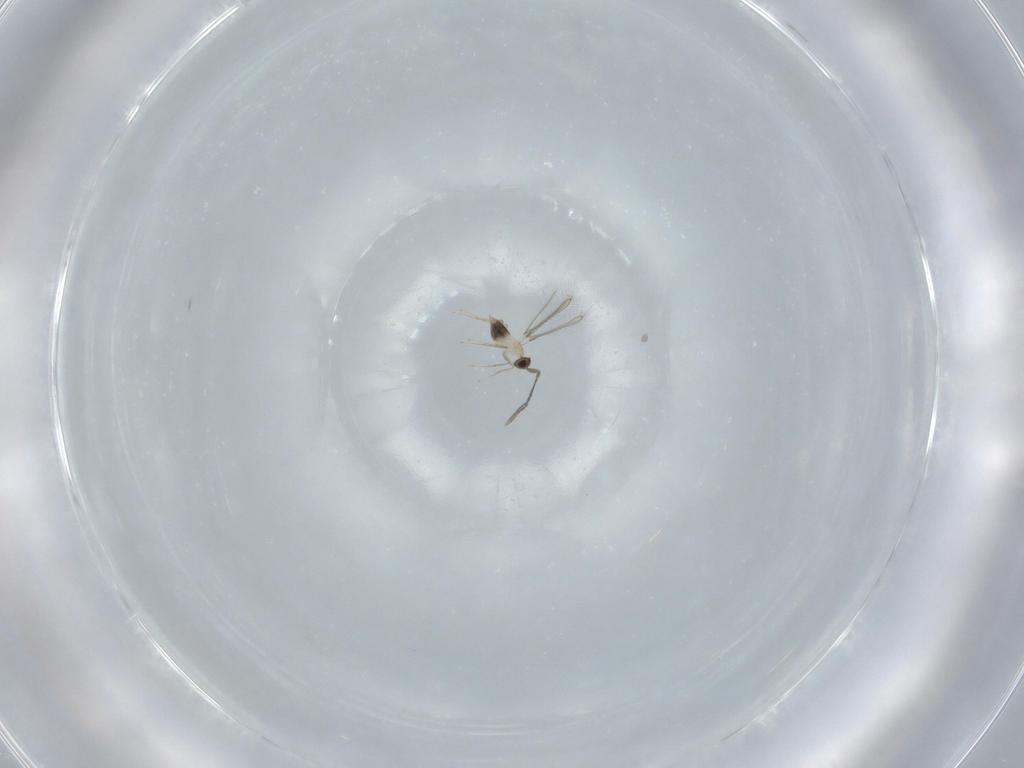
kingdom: Animalia
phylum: Arthropoda
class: Insecta
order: Hymenoptera
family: Mymaridae
